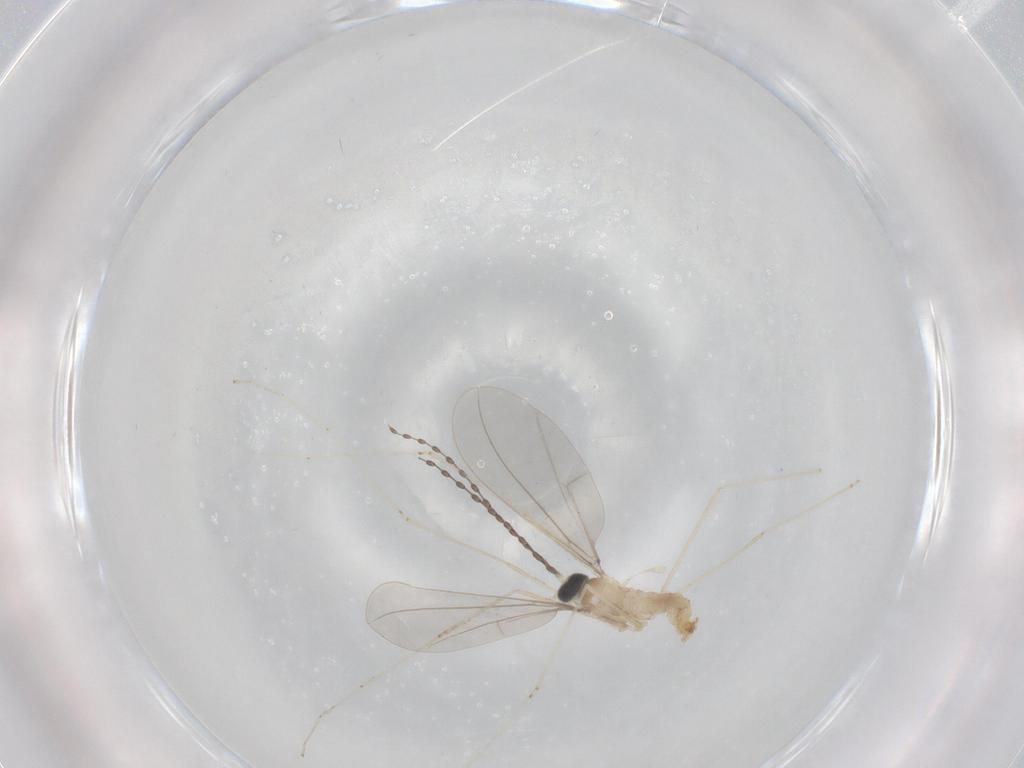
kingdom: Animalia
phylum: Arthropoda
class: Insecta
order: Diptera
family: Cecidomyiidae
